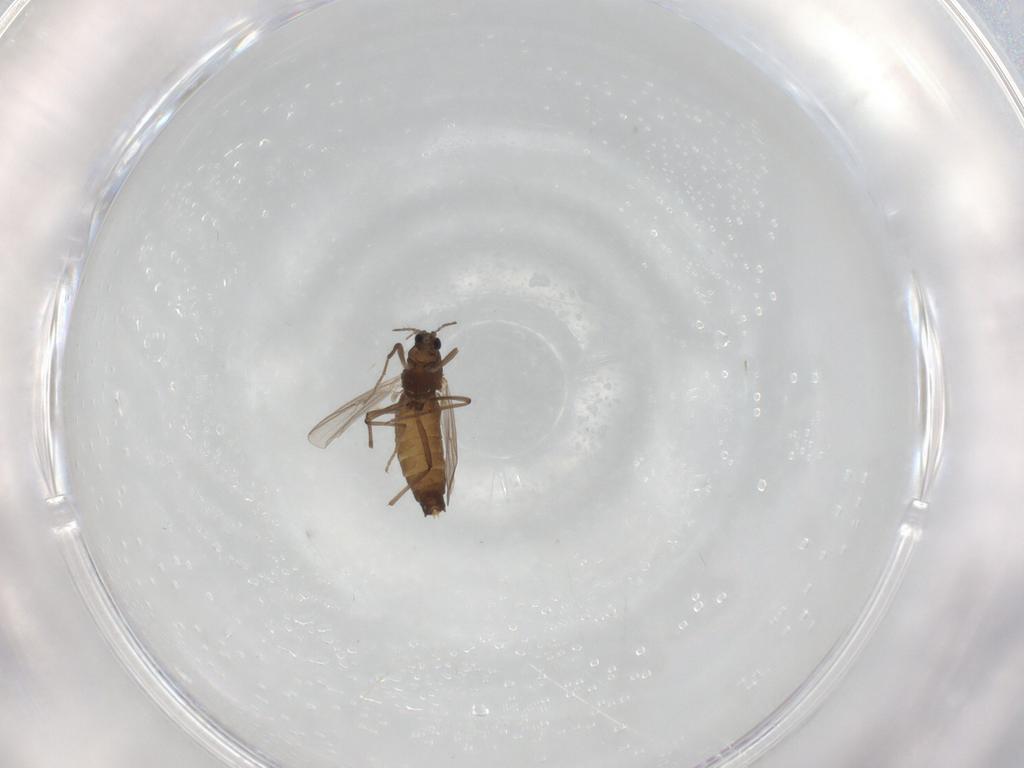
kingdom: Animalia
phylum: Arthropoda
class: Insecta
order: Diptera
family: Chironomidae
